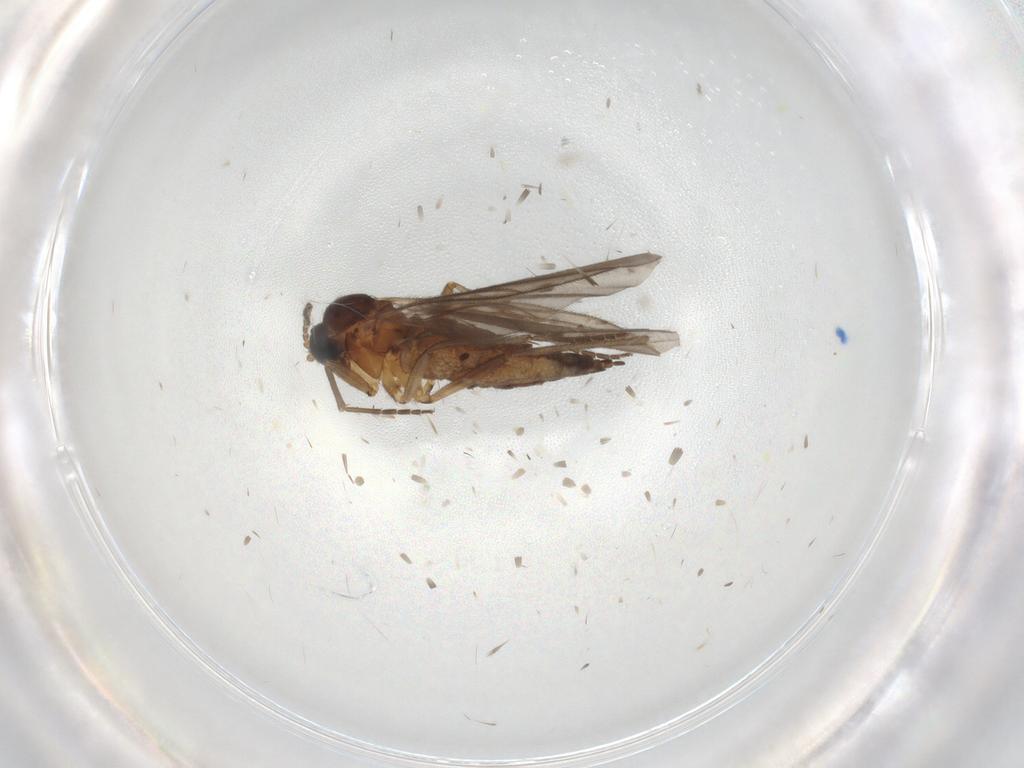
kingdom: Animalia
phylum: Arthropoda
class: Insecta
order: Diptera
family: Sciaridae
